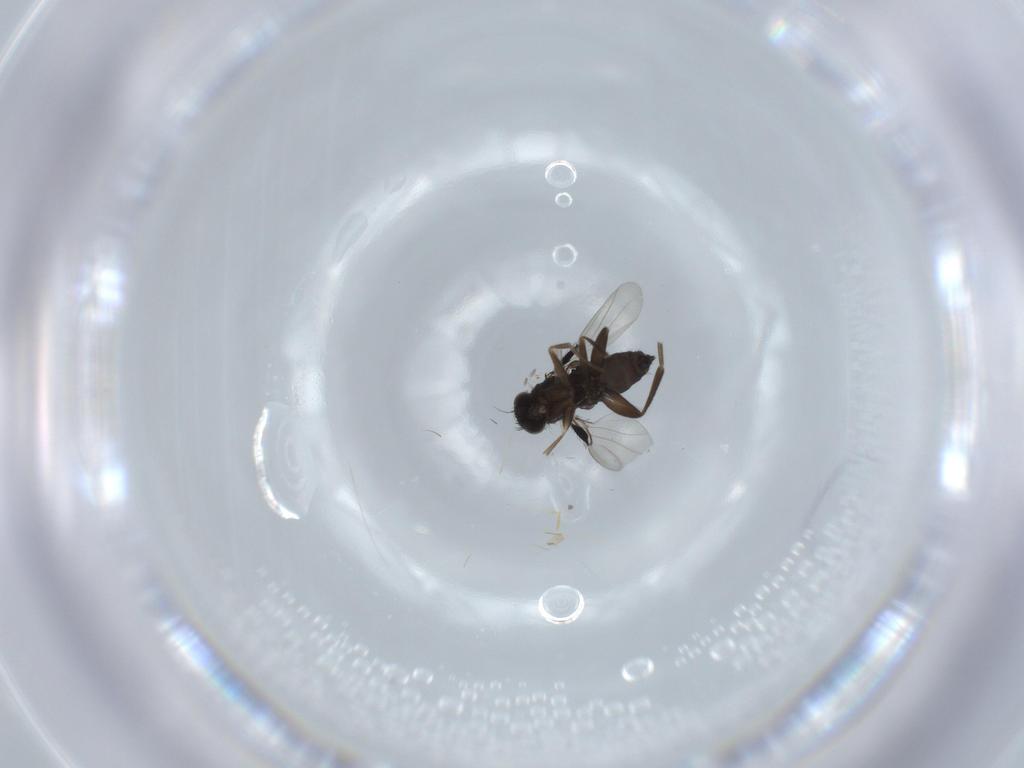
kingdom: Animalia
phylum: Arthropoda
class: Insecta
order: Diptera
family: Phoridae
